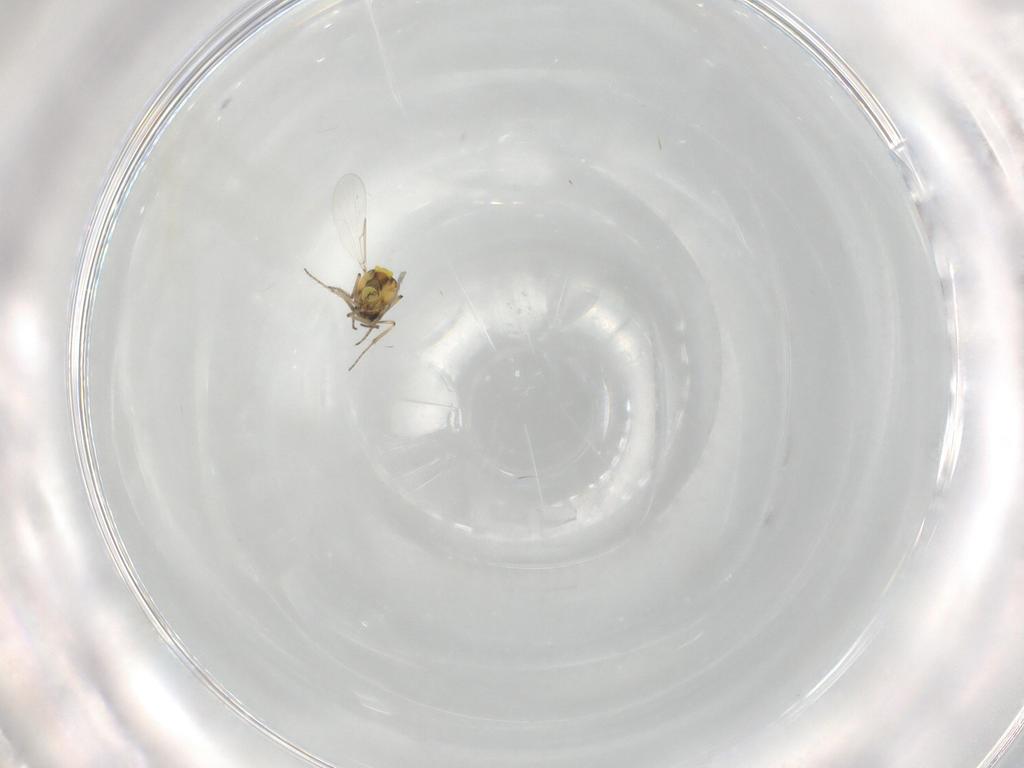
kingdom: Animalia
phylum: Arthropoda
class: Insecta
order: Diptera
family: Ceratopogonidae
